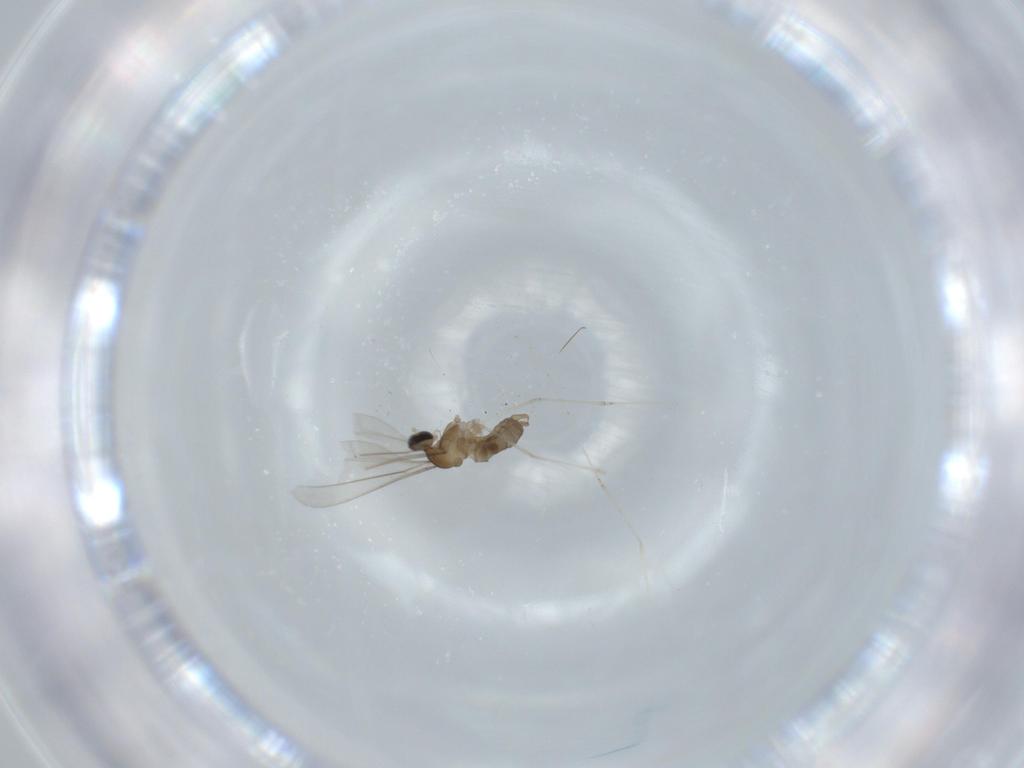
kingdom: Animalia
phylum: Arthropoda
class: Insecta
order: Diptera
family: Cecidomyiidae
